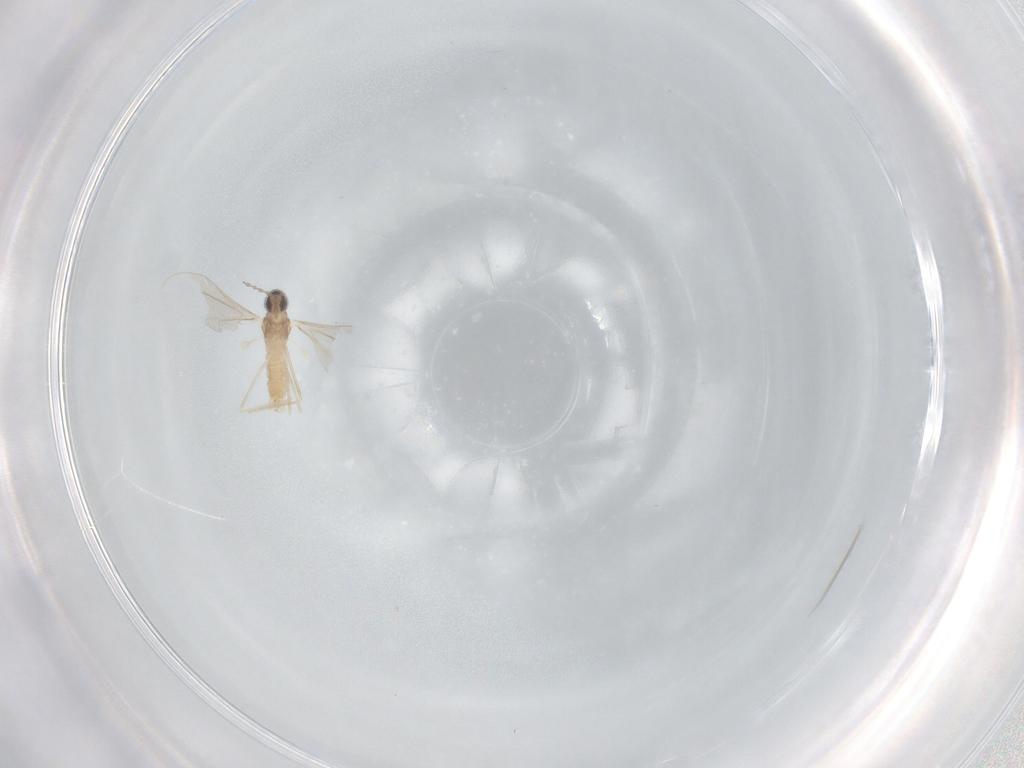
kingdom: Animalia
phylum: Arthropoda
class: Insecta
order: Diptera
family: Cecidomyiidae
